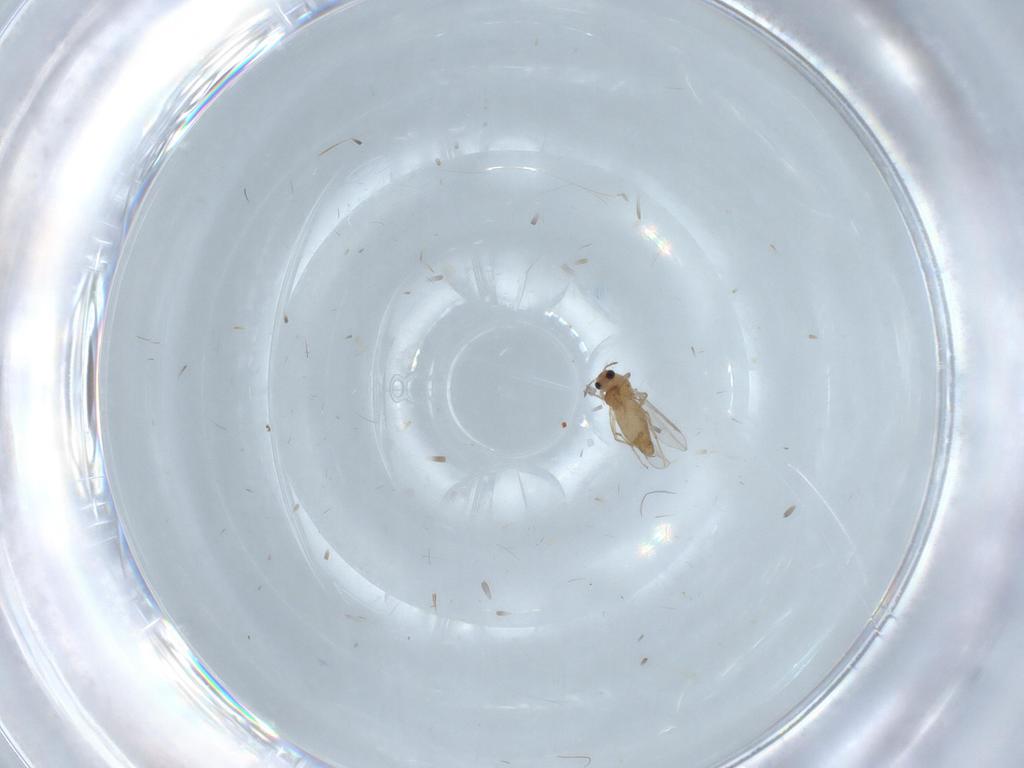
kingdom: Animalia
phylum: Arthropoda
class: Insecta
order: Diptera
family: Chironomidae
